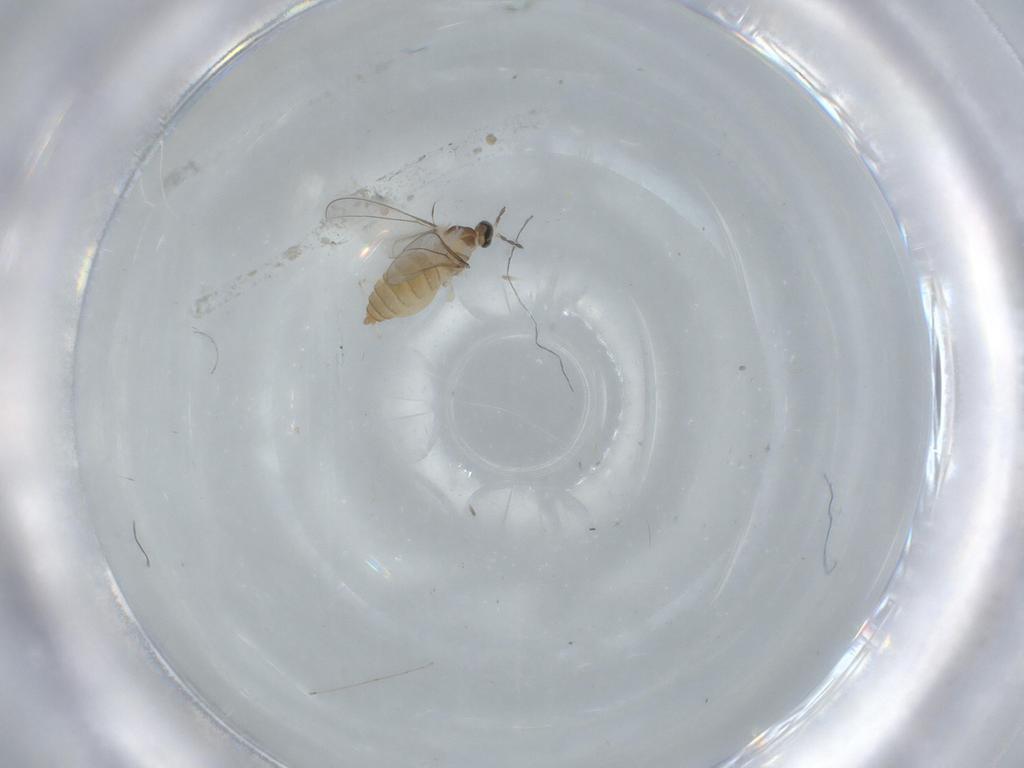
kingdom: Animalia
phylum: Arthropoda
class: Insecta
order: Diptera
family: Cecidomyiidae
